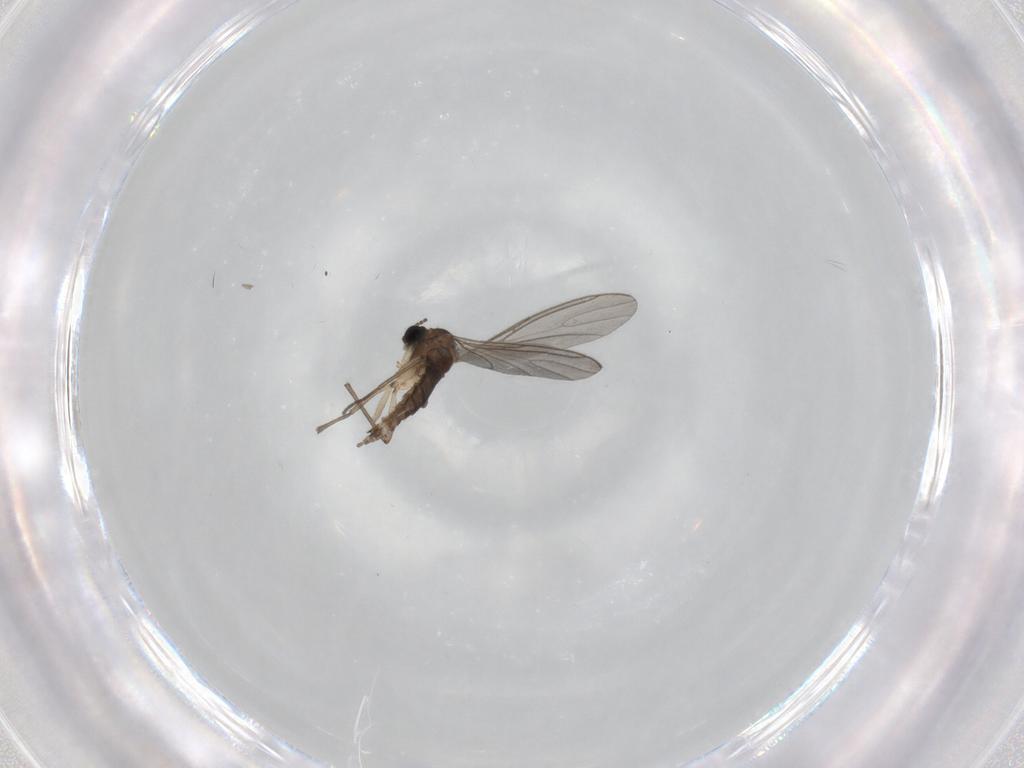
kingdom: Animalia
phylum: Arthropoda
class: Insecta
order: Diptera
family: Sciaridae
